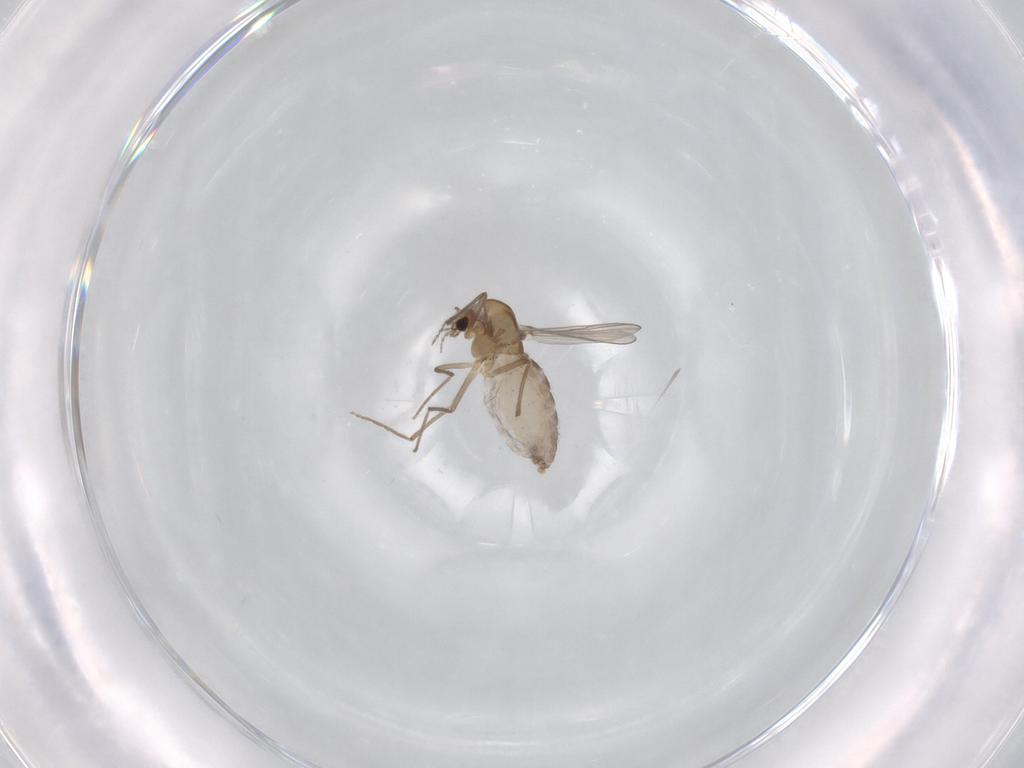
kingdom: Animalia
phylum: Arthropoda
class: Insecta
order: Diptera
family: Chironomidae
